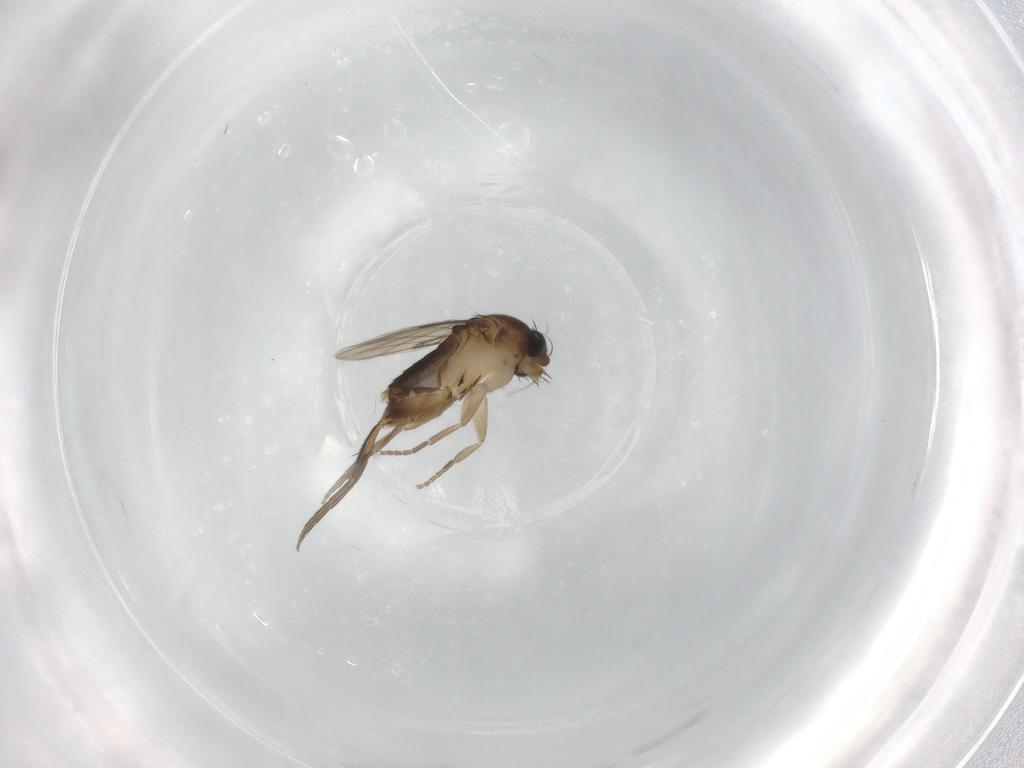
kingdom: Animalia
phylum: Arthropoda
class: Insecta
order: Diptera
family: Phoridae
